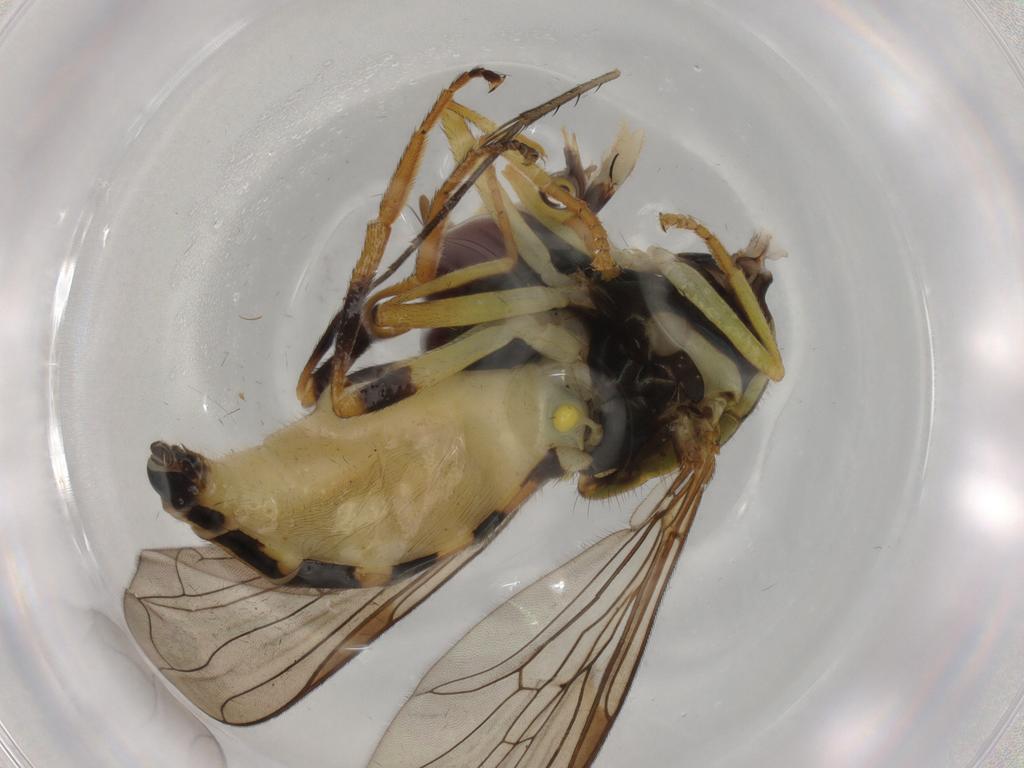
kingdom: Animalia
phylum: Arthropoda
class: Insecta
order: Diptera
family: Syrphidae
